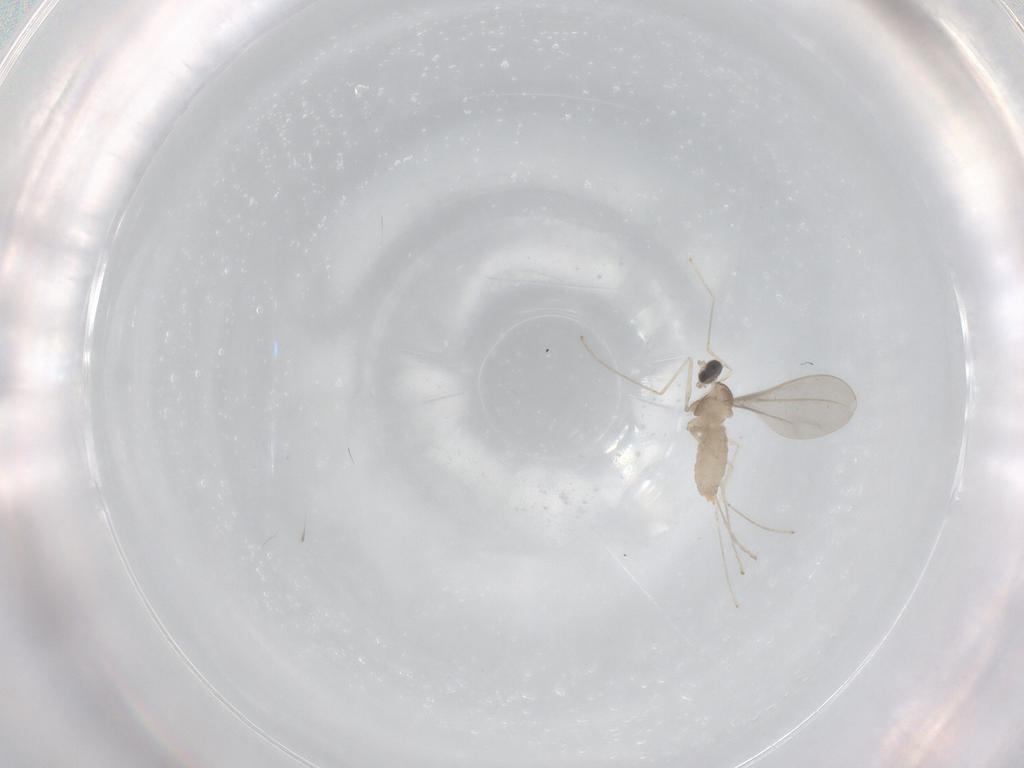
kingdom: Animalia
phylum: Arthropoda
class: Insecta
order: Diptera
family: Cecidomyiidae
